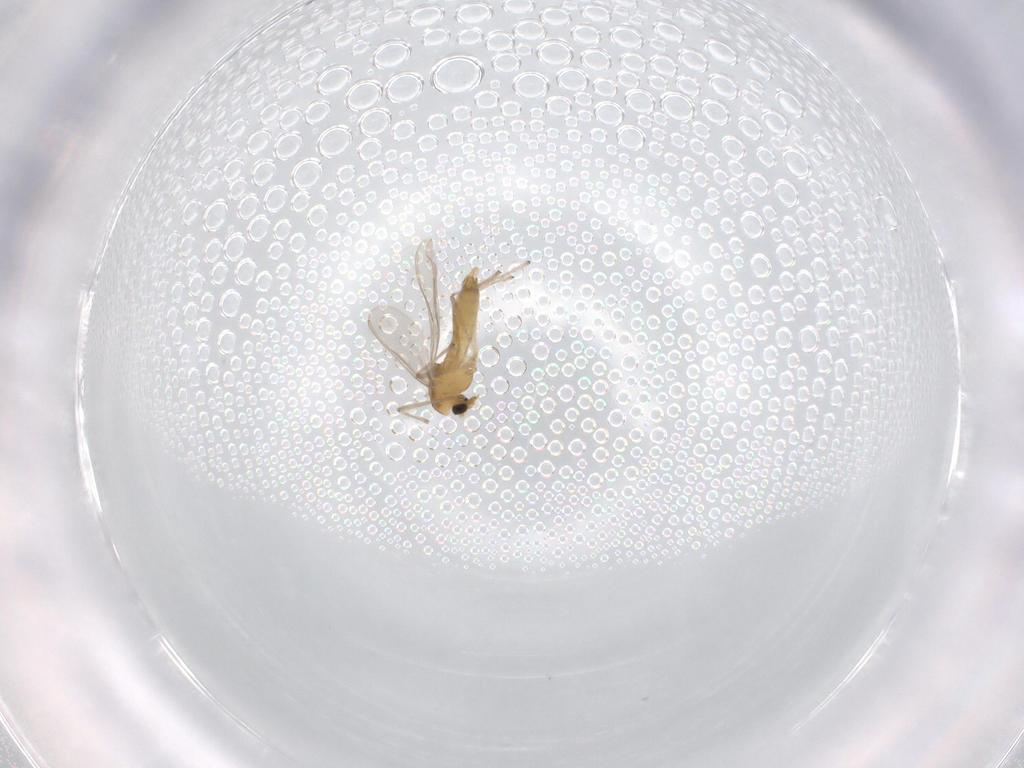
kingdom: Animalia
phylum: Arthropoda
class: Insecta
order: Diptera
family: Chironomidae
